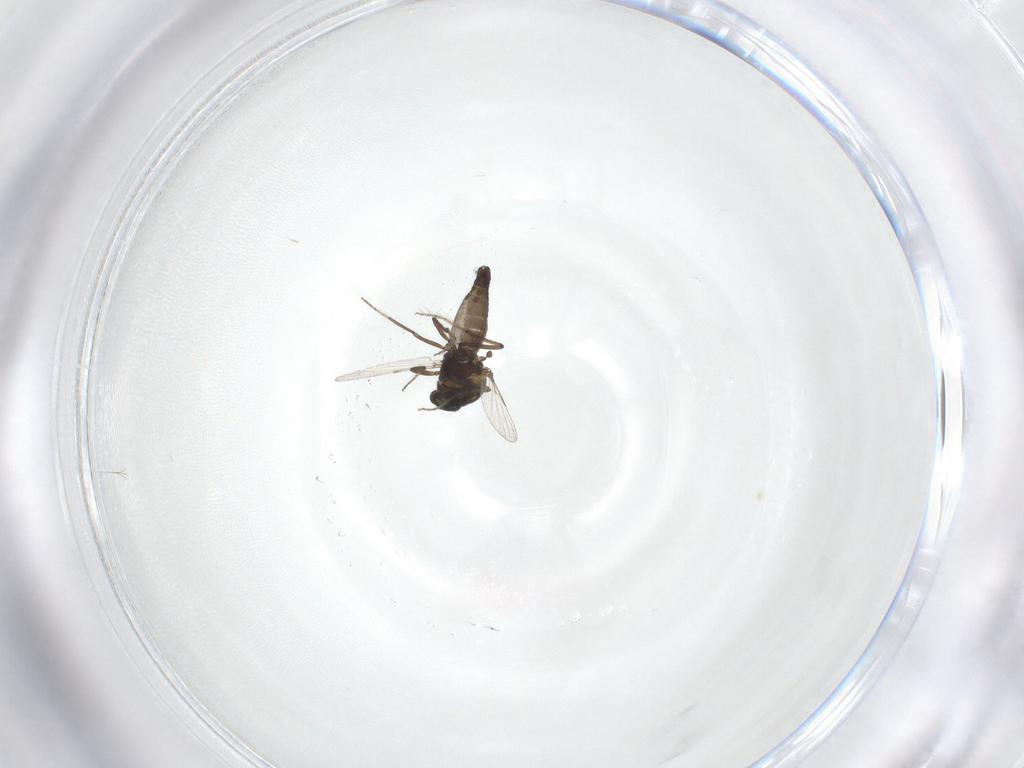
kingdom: Animalia
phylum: Arthropoda
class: Insecta
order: Diptera
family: Ceratopogonidae
